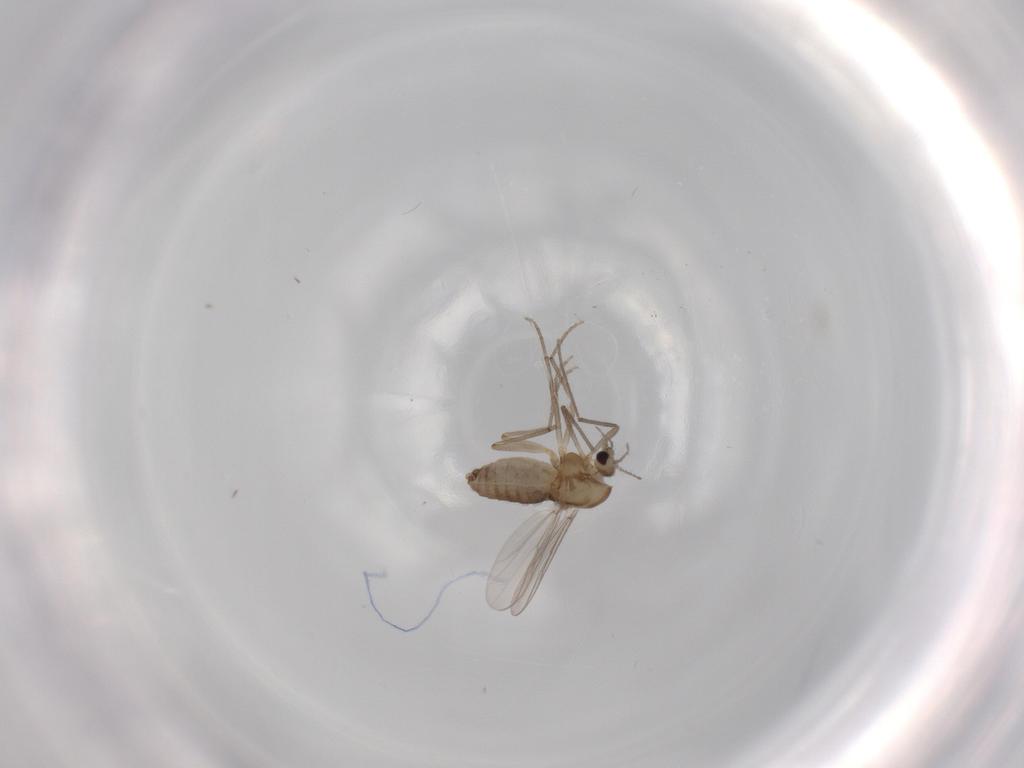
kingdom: Animalia
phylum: Arthropoda
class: Insecta
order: Diptera
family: Chironomidae
